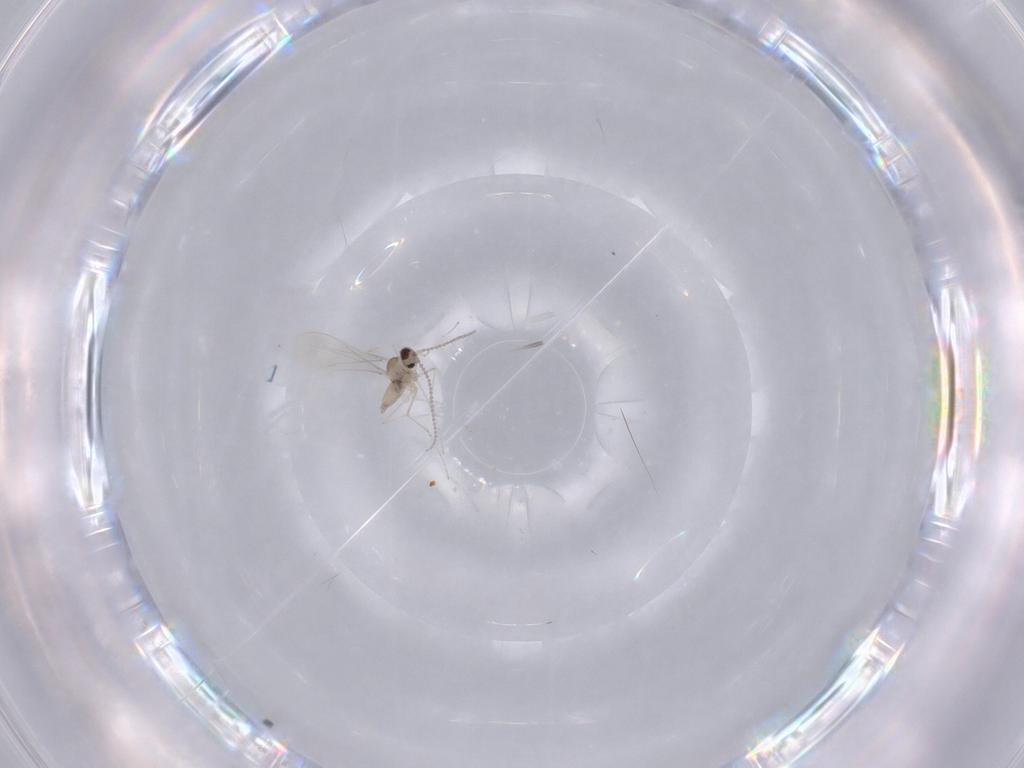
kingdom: Animalia
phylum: Arthropoda
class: Insecta
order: Diptera
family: Cecidomyiidae
